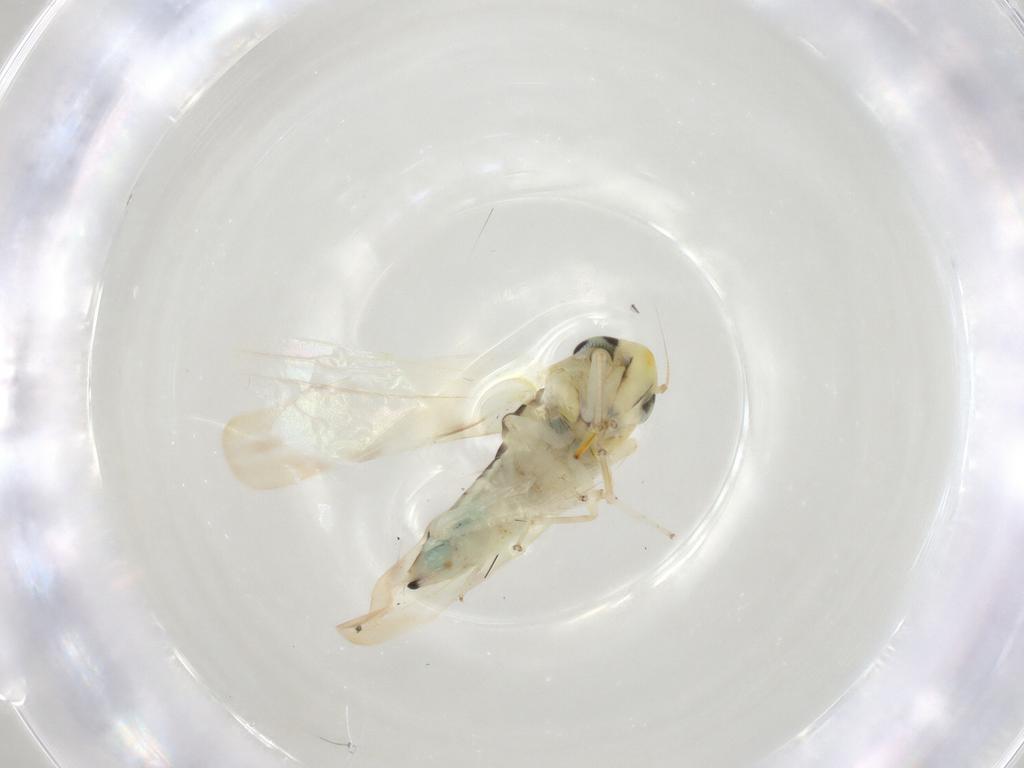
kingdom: Animalia
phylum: Arthropoda
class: Insecta
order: Hemiptera
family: Cicadellidae
